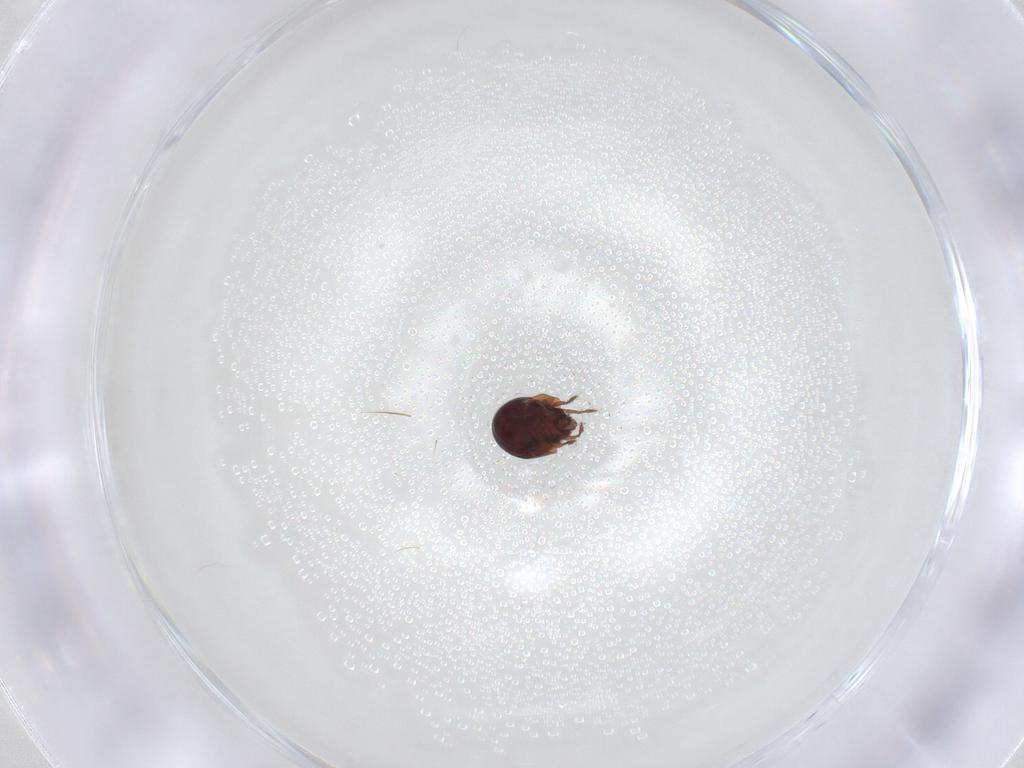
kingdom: Animalia
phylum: Arthropoda
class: Arachnida
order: Sarcoptiformes
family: Humerobatidae
